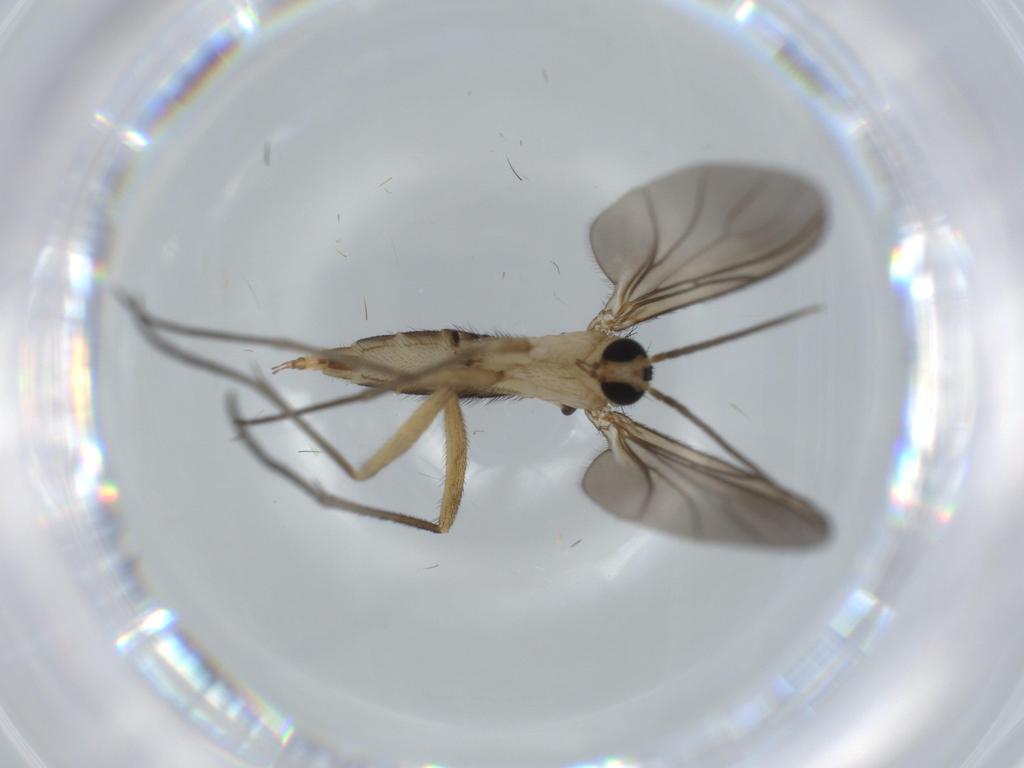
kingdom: Animalia
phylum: Arthropoda
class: Insecta
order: Diptera
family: Sciaridae
